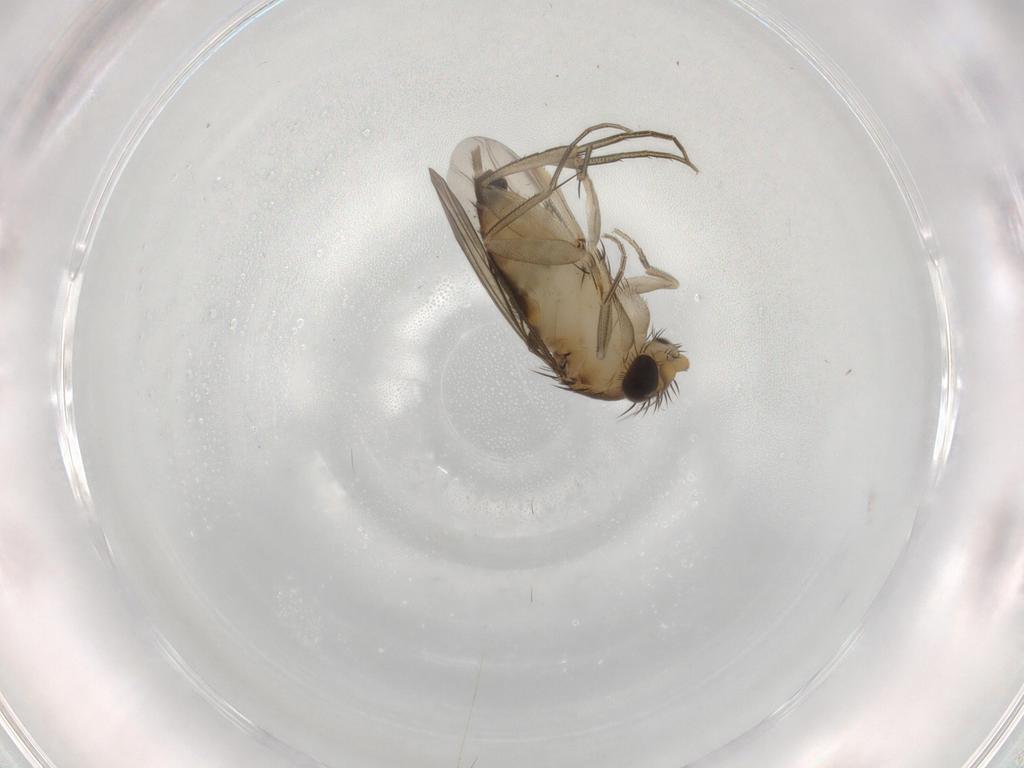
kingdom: Animalia
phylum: Arthropoda
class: Insecta
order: Diptera
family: Phoridae
